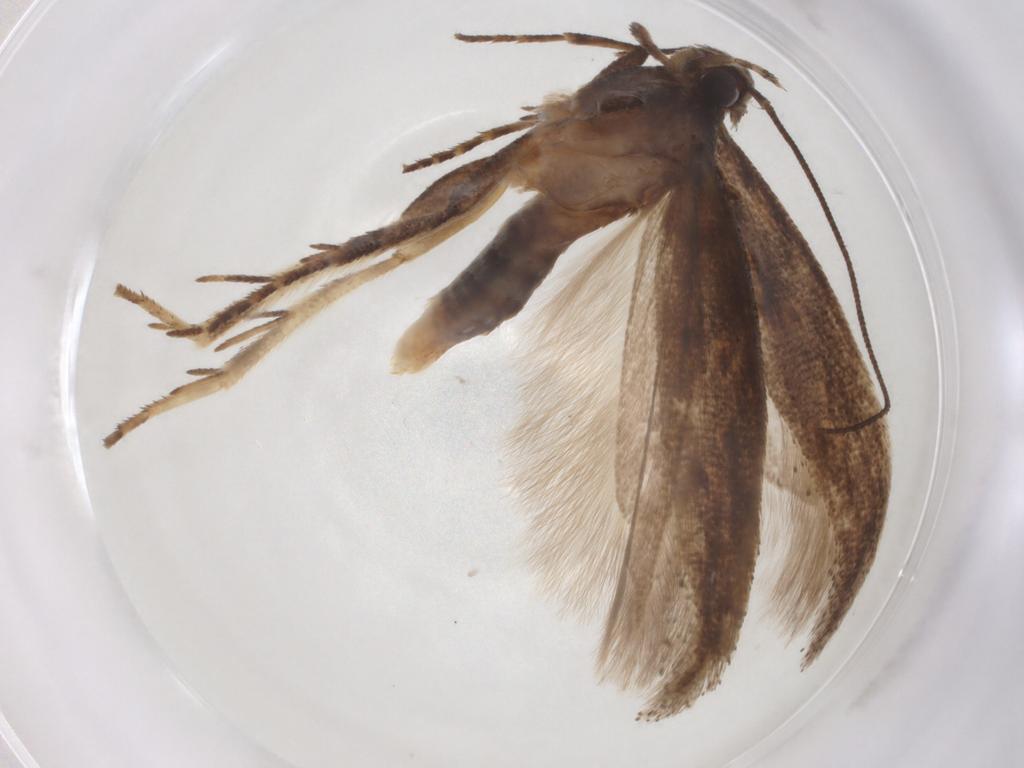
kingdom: Animalia
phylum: Arthropoda
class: Insecta
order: Lepidoptera
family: Gelechiidae
